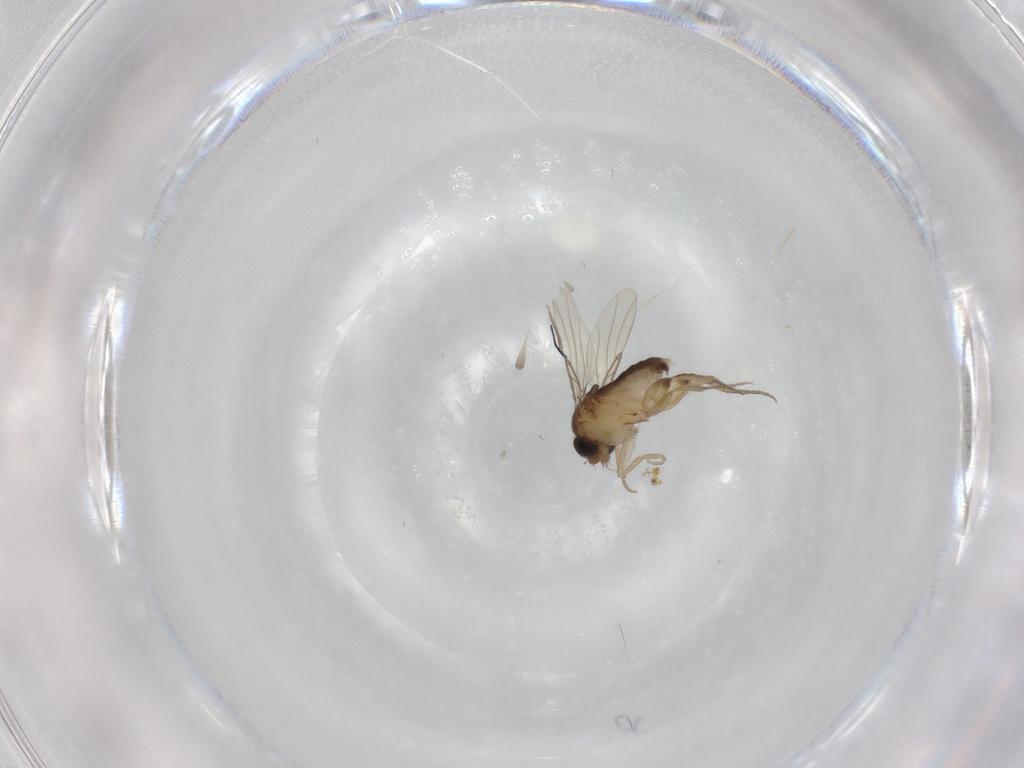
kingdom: Animalia
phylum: Arthropoda
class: Insecta
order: Diptera
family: Phoridae
